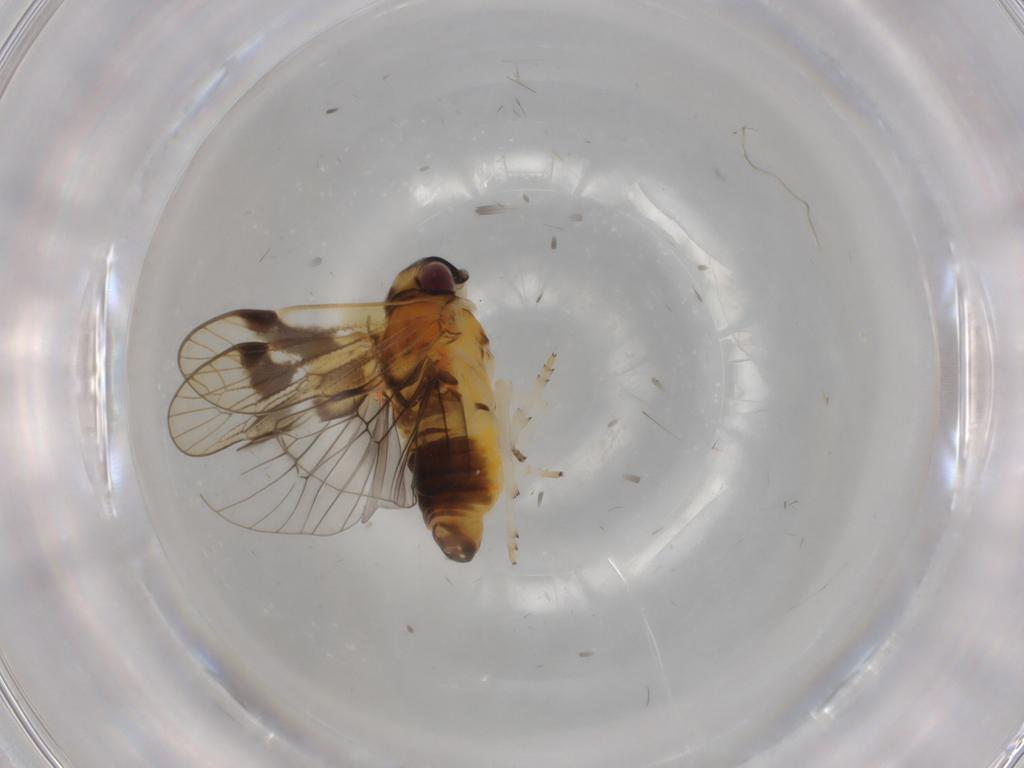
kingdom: Animalia
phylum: Arthropoda
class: Insecta
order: Hemiptera
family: Cixiidae
